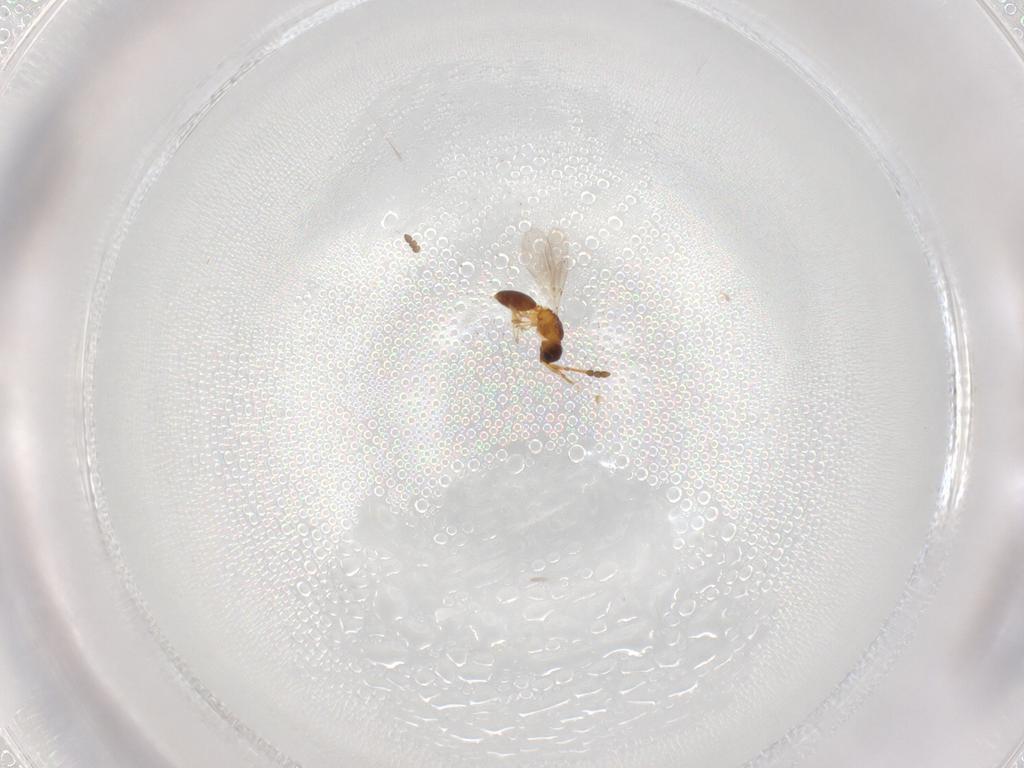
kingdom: Animalia
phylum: Arthropoda
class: Insecta
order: Hymenoptera
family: Diapriidae
